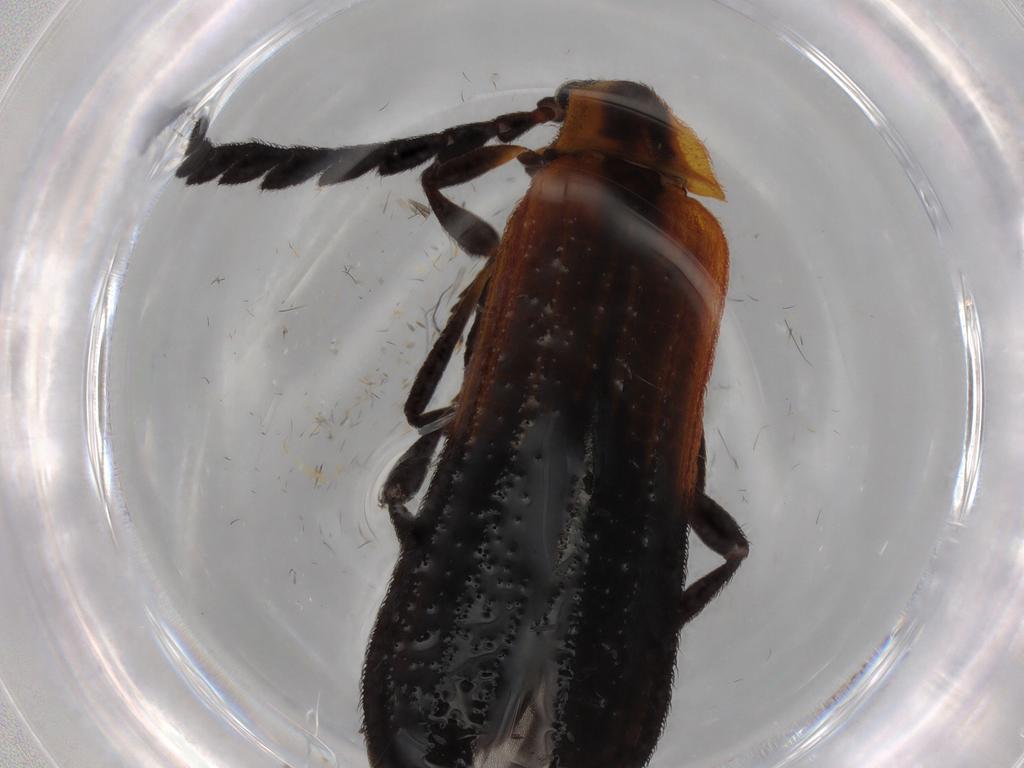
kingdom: Animalia
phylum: Arthropoda
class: Insecta
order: Coleoptera
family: Lycidae
